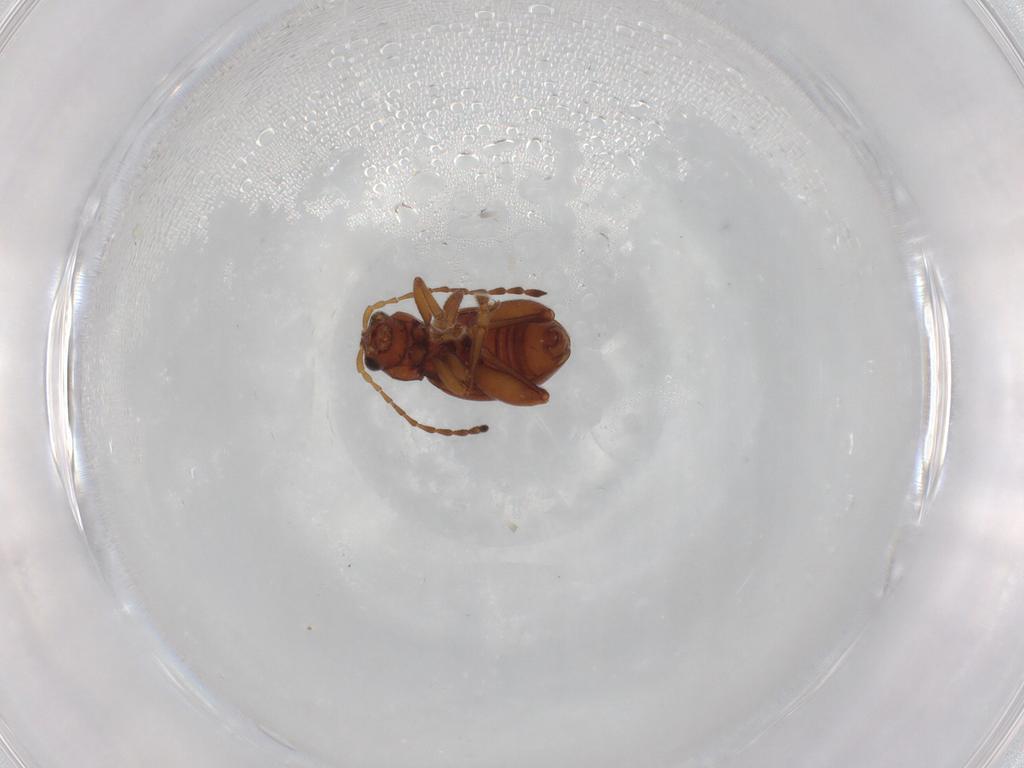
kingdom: Animalia
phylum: Arthropoda
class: Insecta
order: Coleoptera
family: Chrysomelidae
